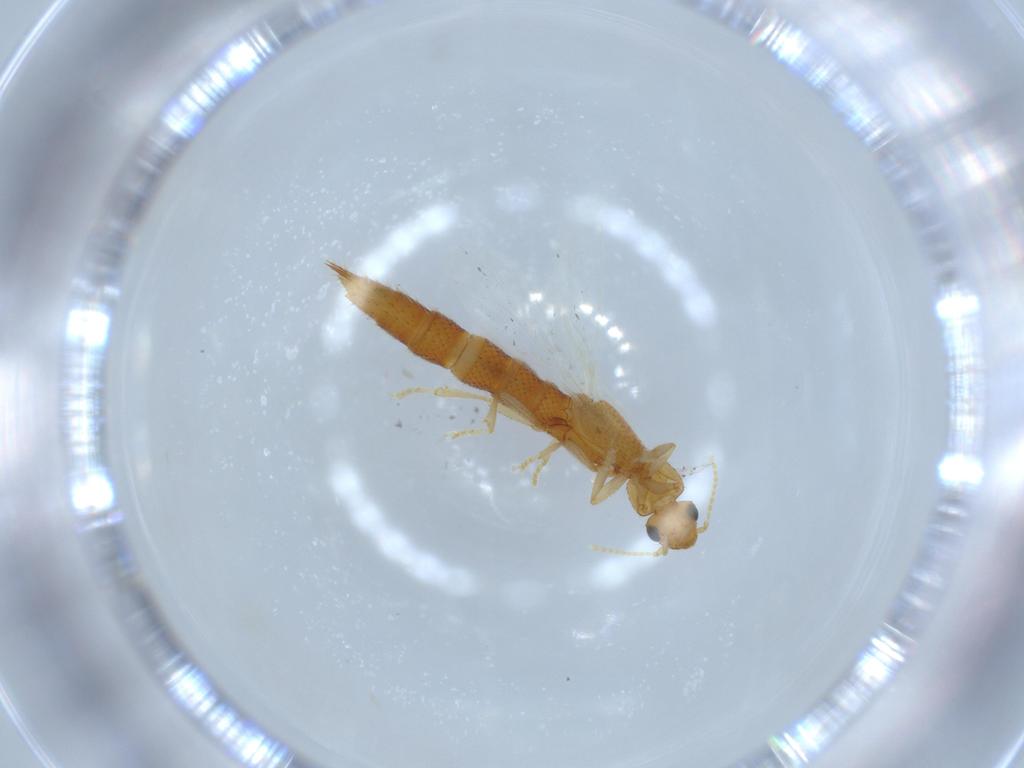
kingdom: Animalia
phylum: Arthropoda
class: Insecta
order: Coleoptera
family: Staphylinidae
